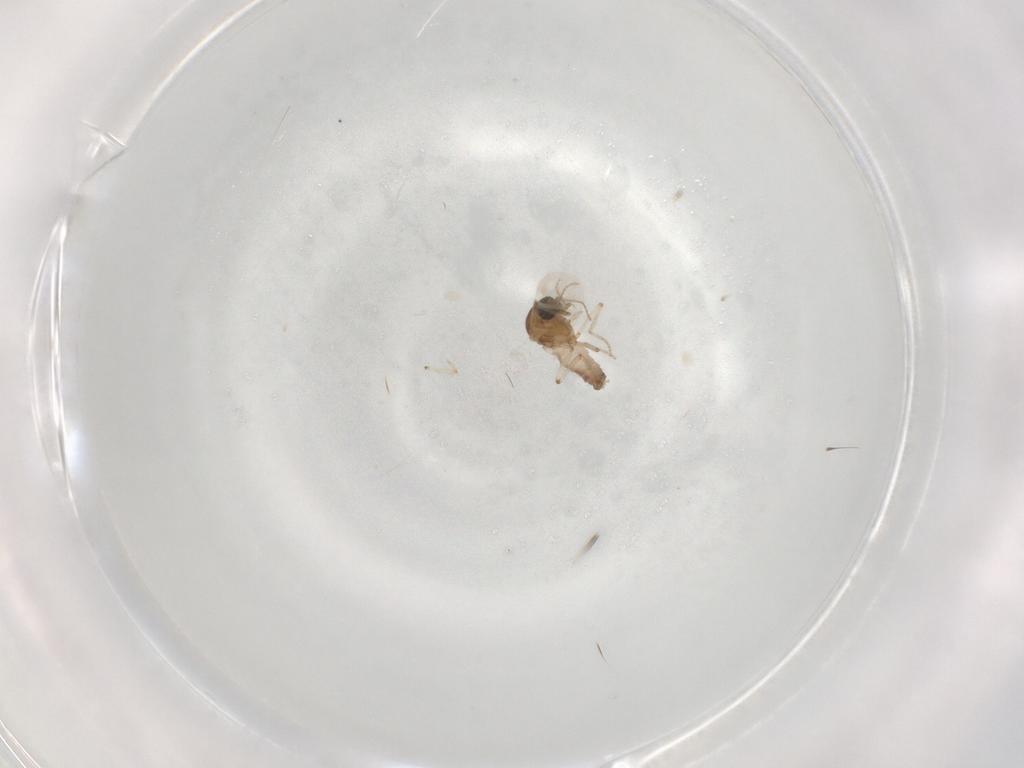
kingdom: Animalia
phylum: Arthropoda
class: Insecta
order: Diptera
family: Ceratopogonidae
